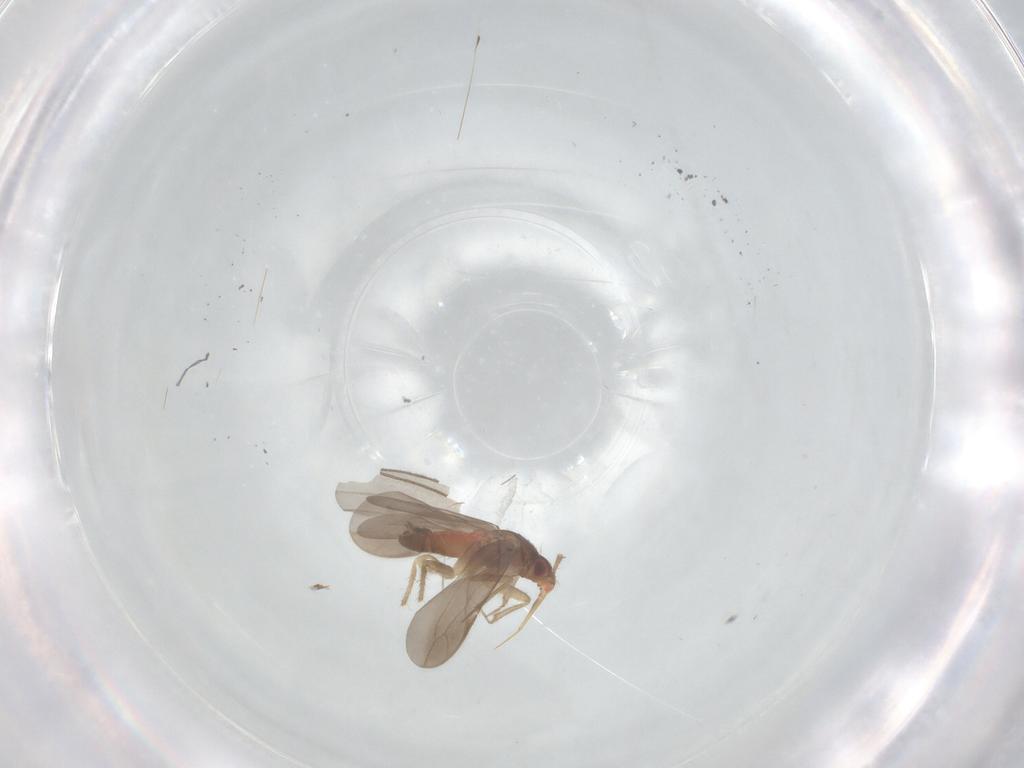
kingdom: Animalia
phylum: Arthropoda
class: Insecta
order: Hemiptera
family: Ceratocombidae
